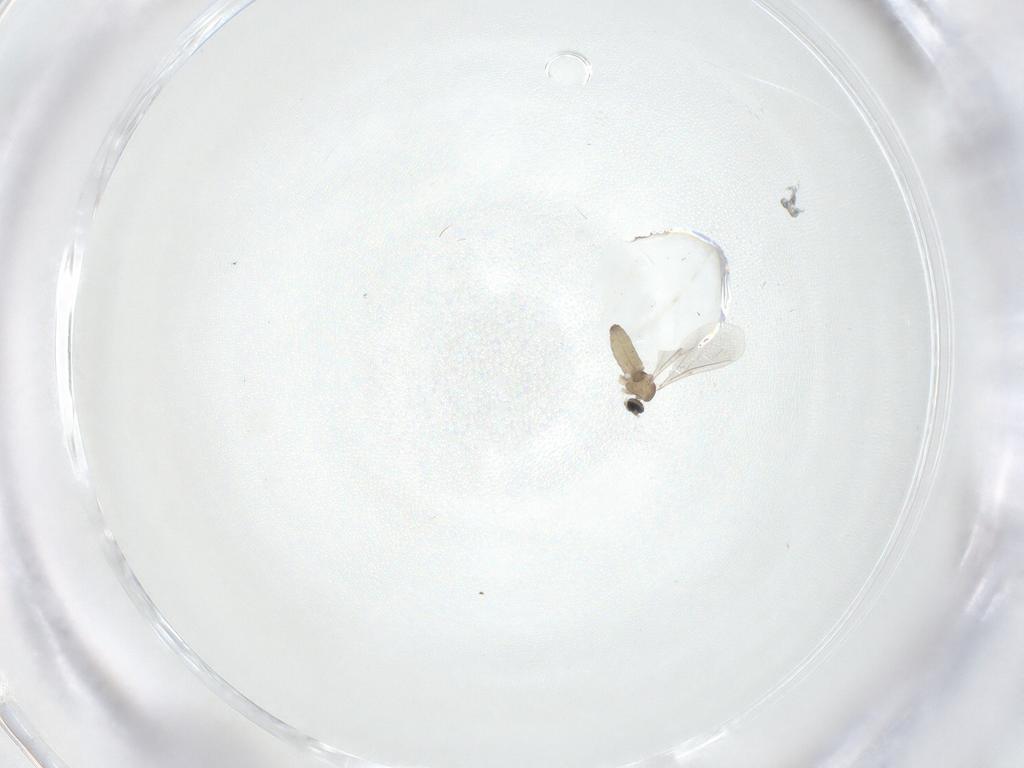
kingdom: Animalia
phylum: Arthropoda
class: Insecta
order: Diptera
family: Cecidomyiidae
